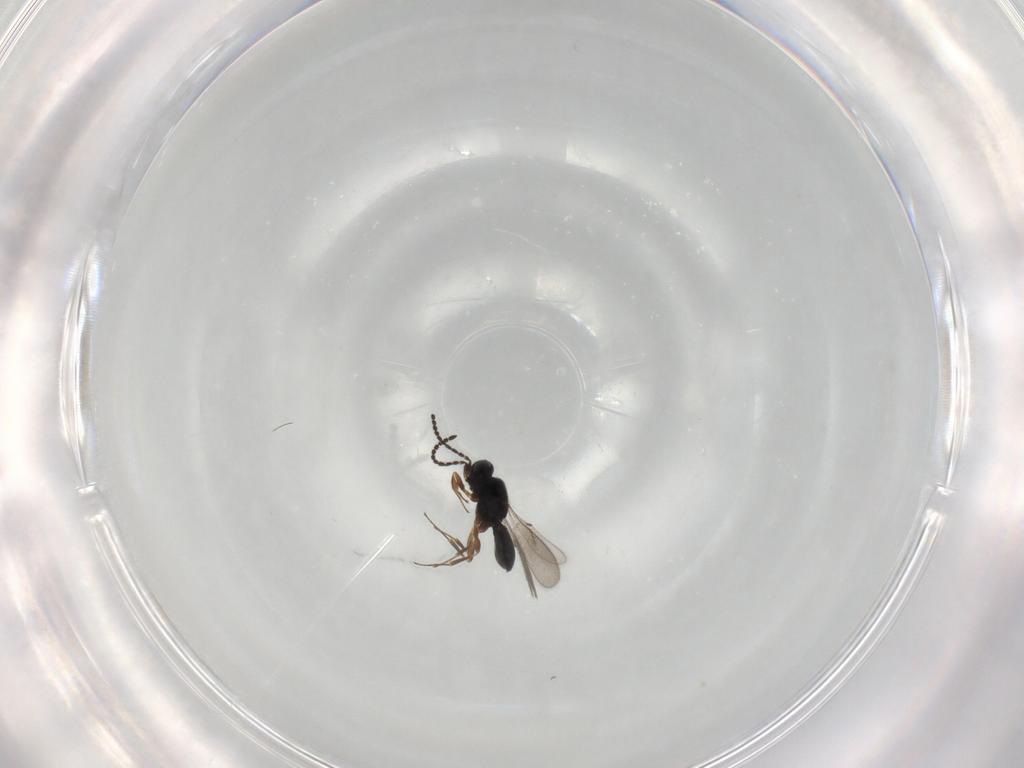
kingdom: Animalia
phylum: Arthropoda
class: Insecta
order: Hymenoptera
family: Scelionidae
